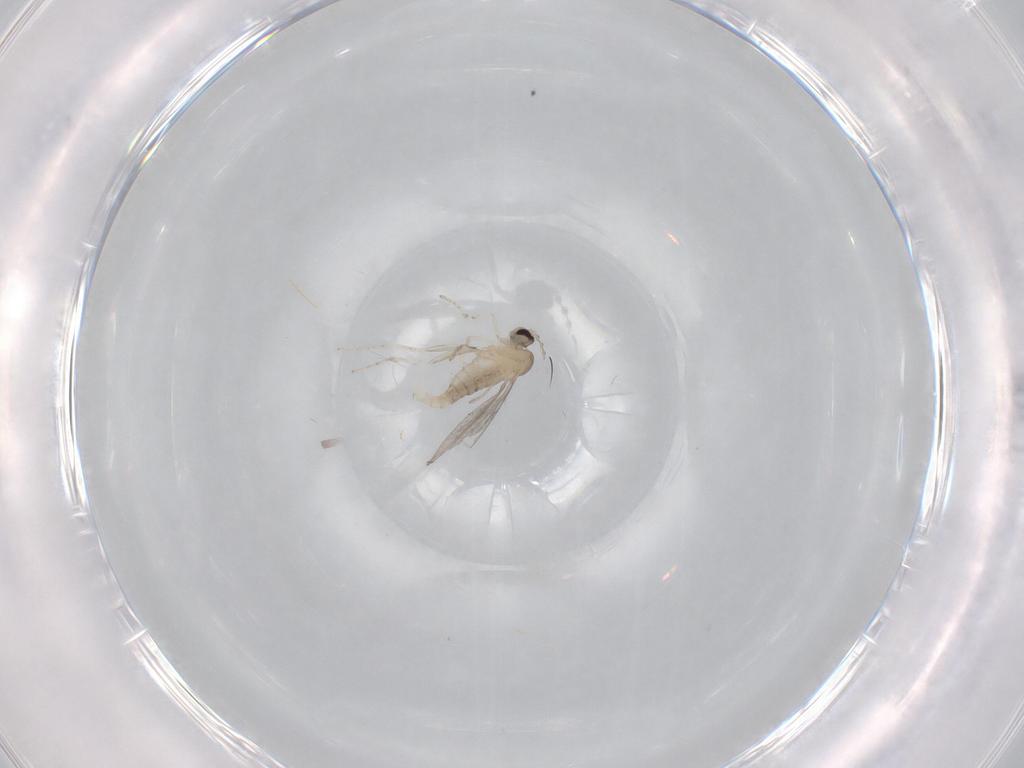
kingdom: Animalia
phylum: Arthropoda
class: Insecta
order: Diptera
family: Cecidomyiidae
